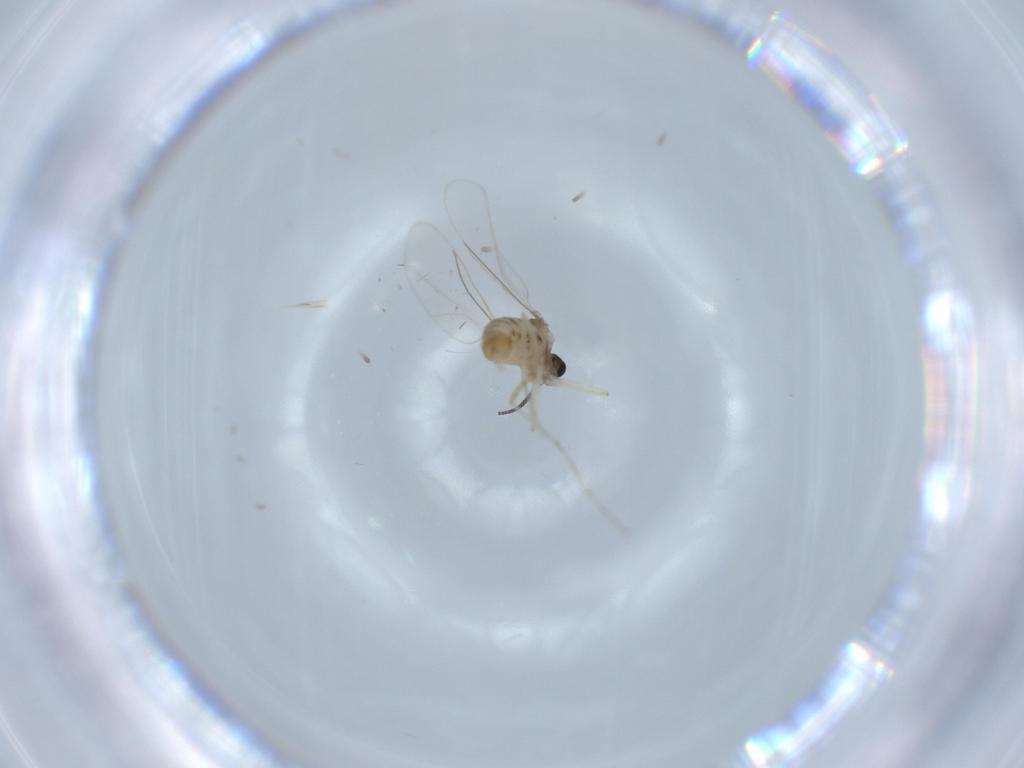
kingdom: Animalia
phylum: Arthropoda
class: Insecta
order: Diptera
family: Cecidomyiidae
